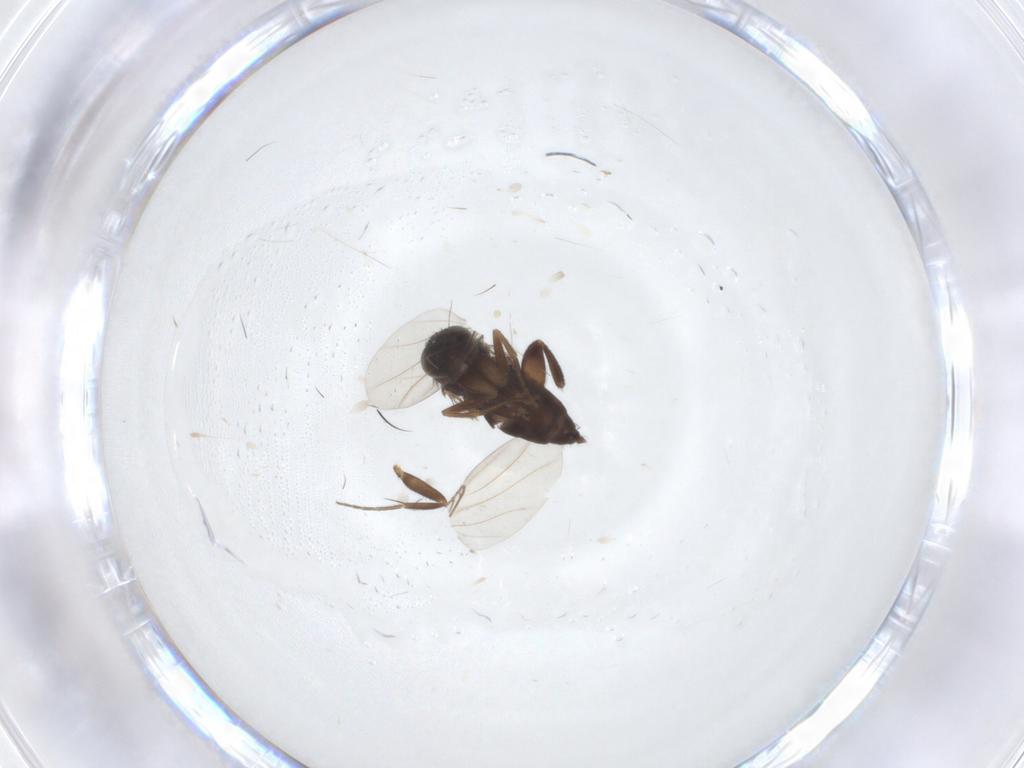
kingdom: Animalia
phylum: Arthropoda
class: Insecta
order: Diptera
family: Phoridae
